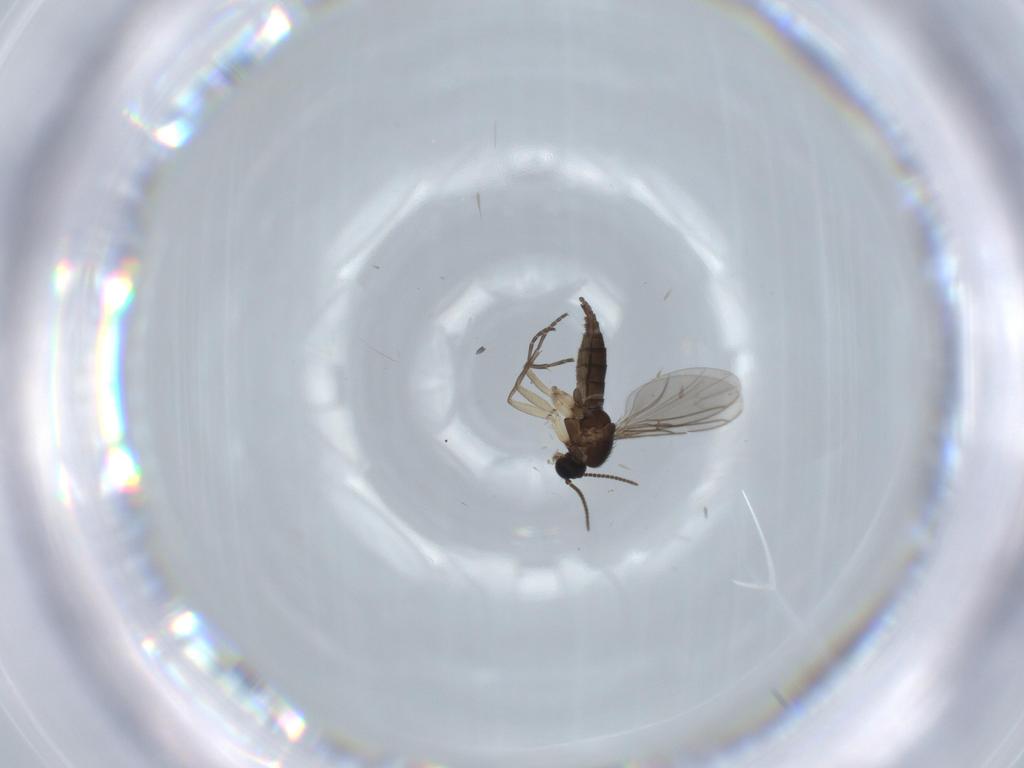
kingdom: Animalia
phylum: Arthropoda
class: Insecta
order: Diptera
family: Sciaridae
